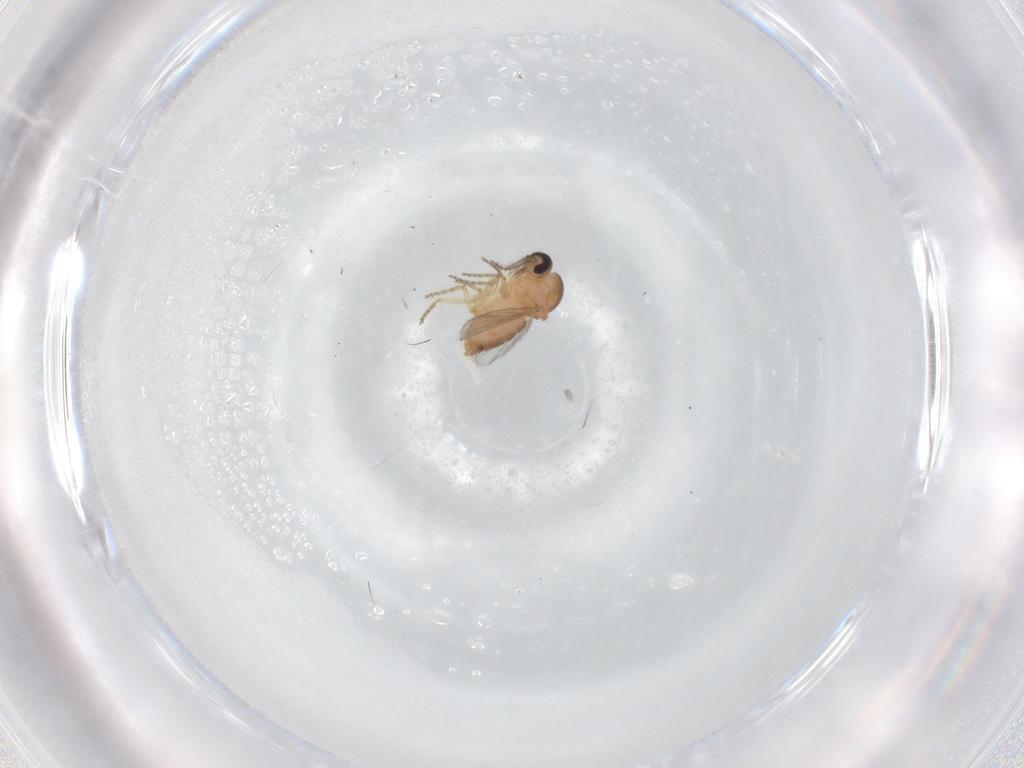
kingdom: Animalia
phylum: Arthropoda
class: Insecta
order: Diptera
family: Ceratopogonidae
